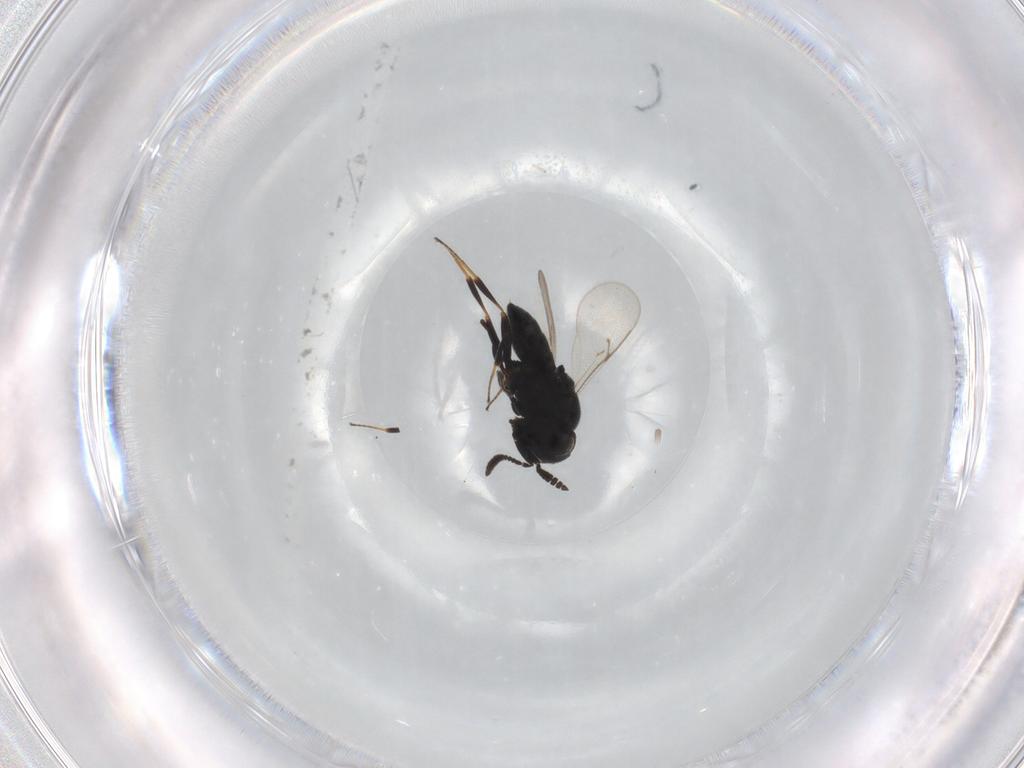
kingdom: Animalia
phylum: Arthropoda
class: Insecta
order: Hymenoptera
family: Scelionidae
